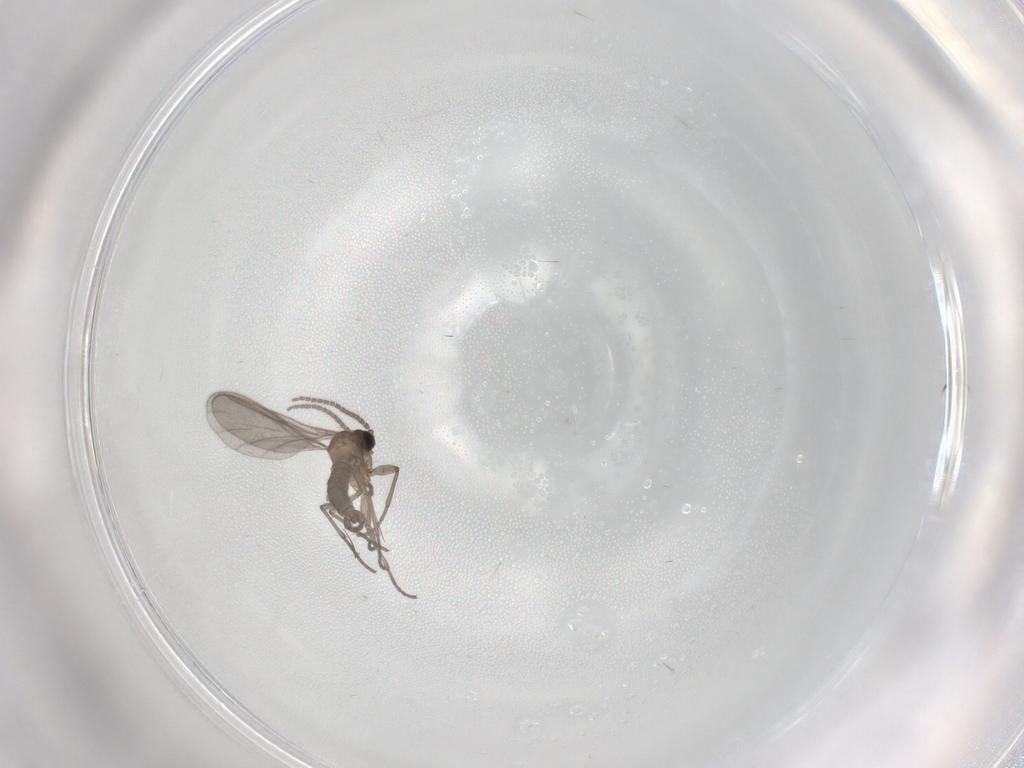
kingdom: Animalia
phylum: Arthropoda
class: Insecta
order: Diptera
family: Sciaridae
